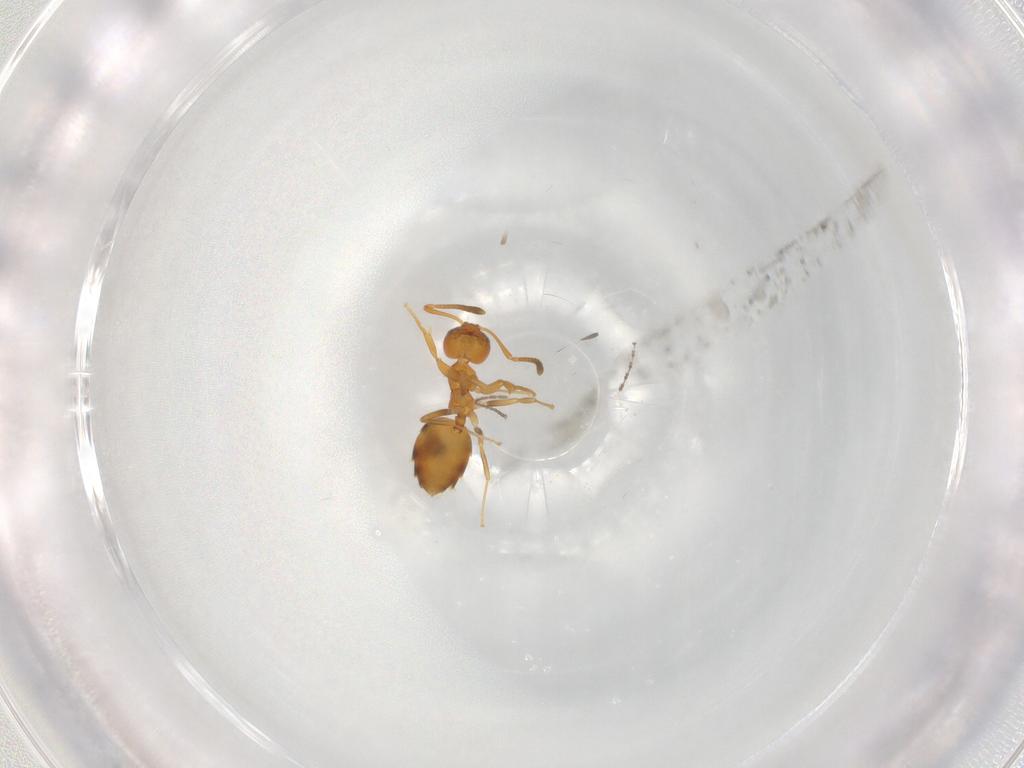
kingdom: Animalia
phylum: Arthropoda
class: Insecta
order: Hymenoptera
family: Formicidae
